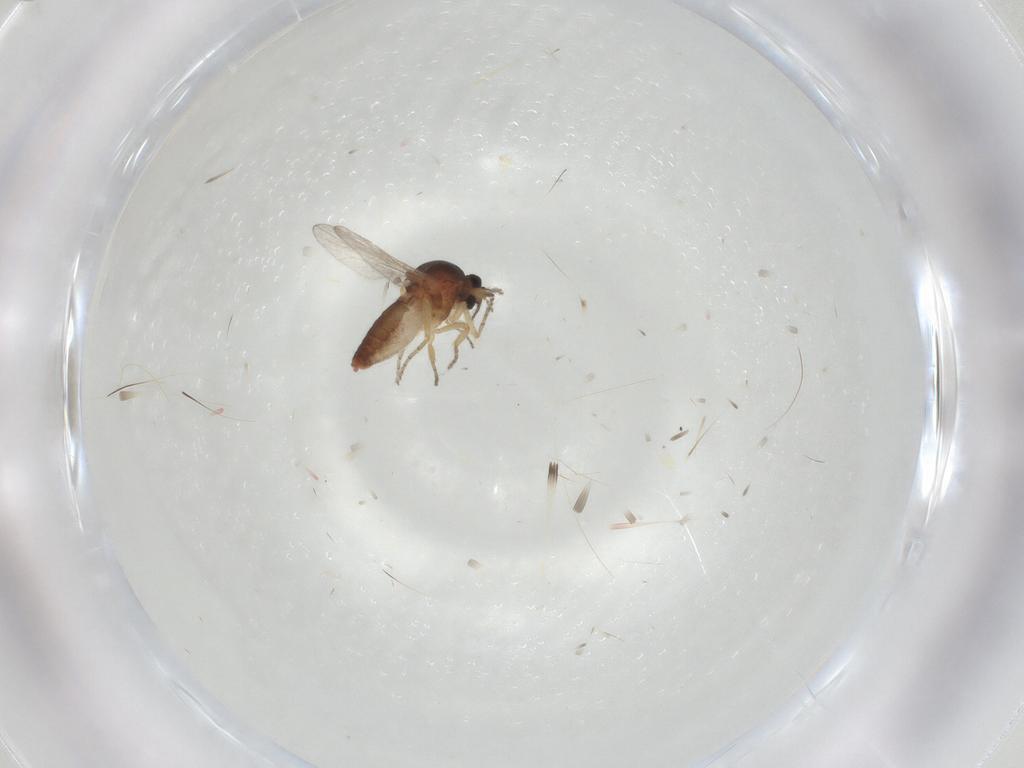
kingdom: Animalia
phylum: Arthropoda
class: Insecta
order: Diptera
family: Ceratopogonidae
